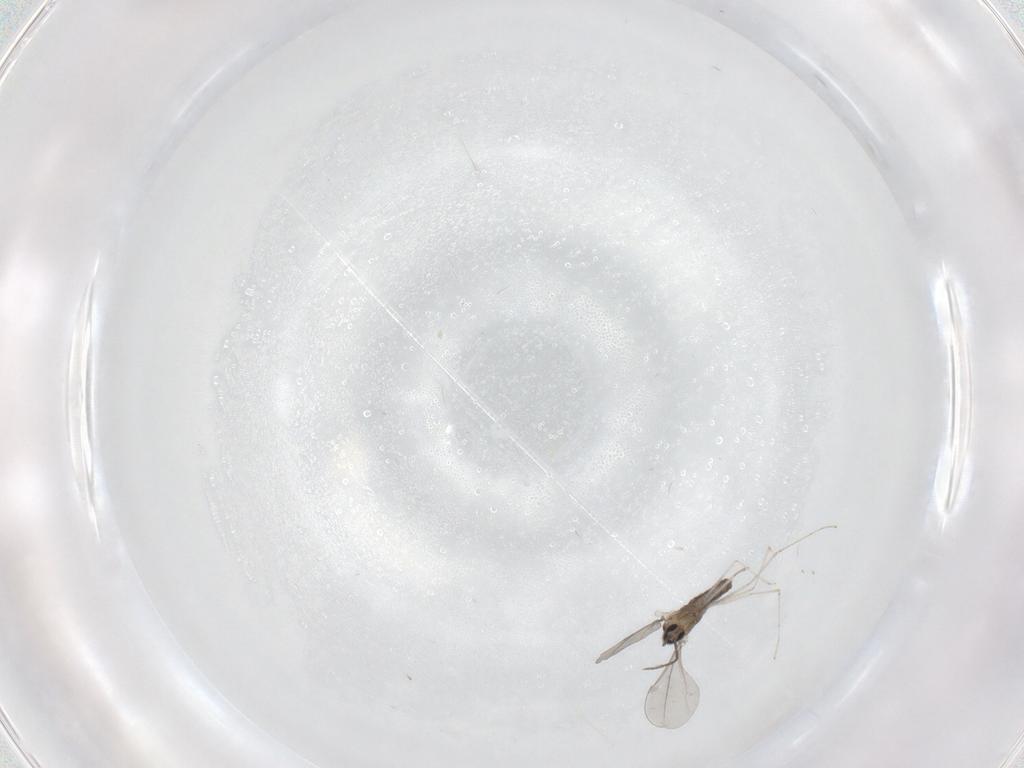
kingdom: Animalia
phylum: Arthropoda
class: Insecta
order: Diptera
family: Cecidomyiidae
